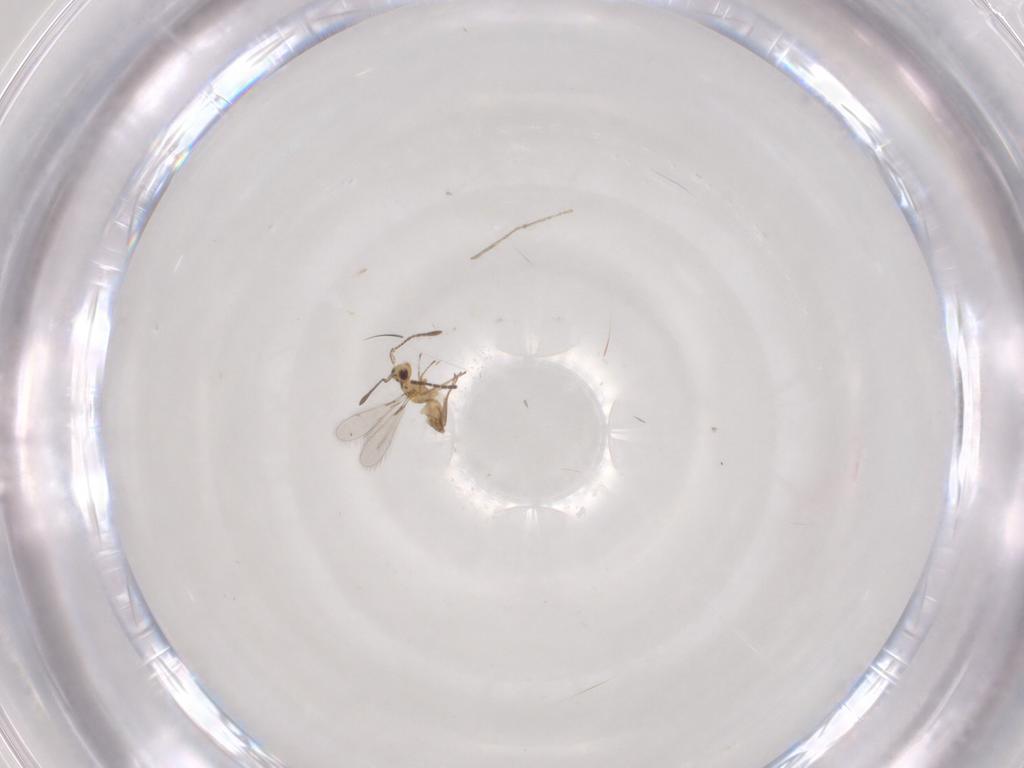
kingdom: Animalia
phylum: Arthropoda
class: Insecta
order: Hymenoptera
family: Mymaridae
